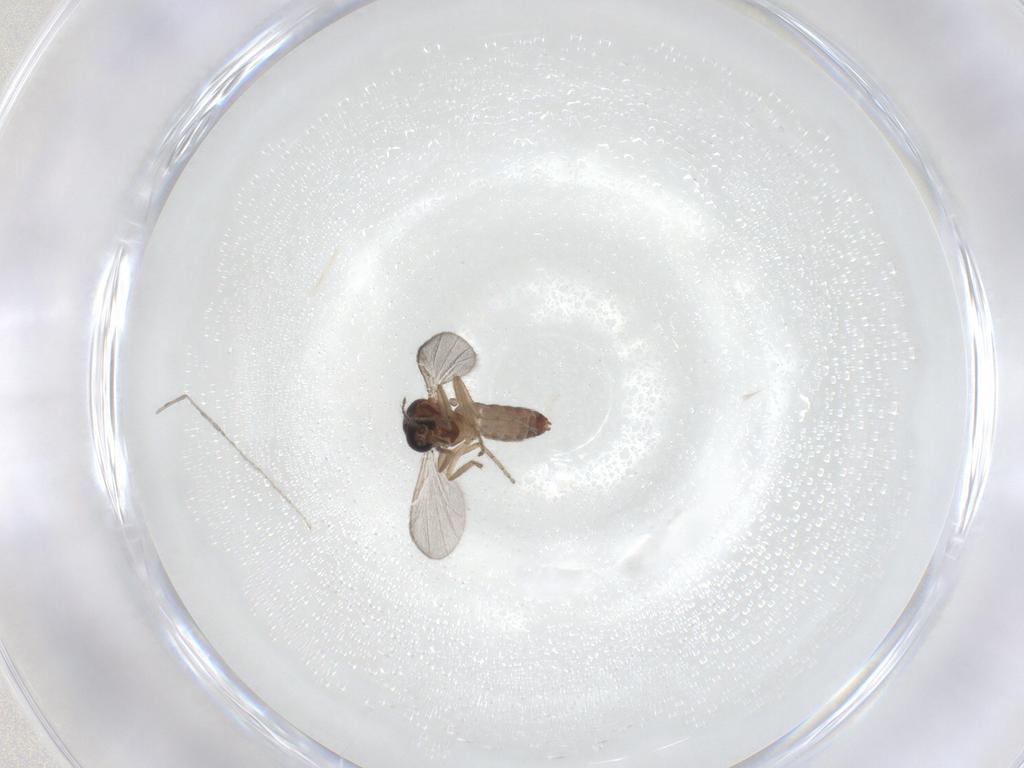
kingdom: Animalia
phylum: Arthropoda
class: Insecta
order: Diptera
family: Ceratopogonidae
